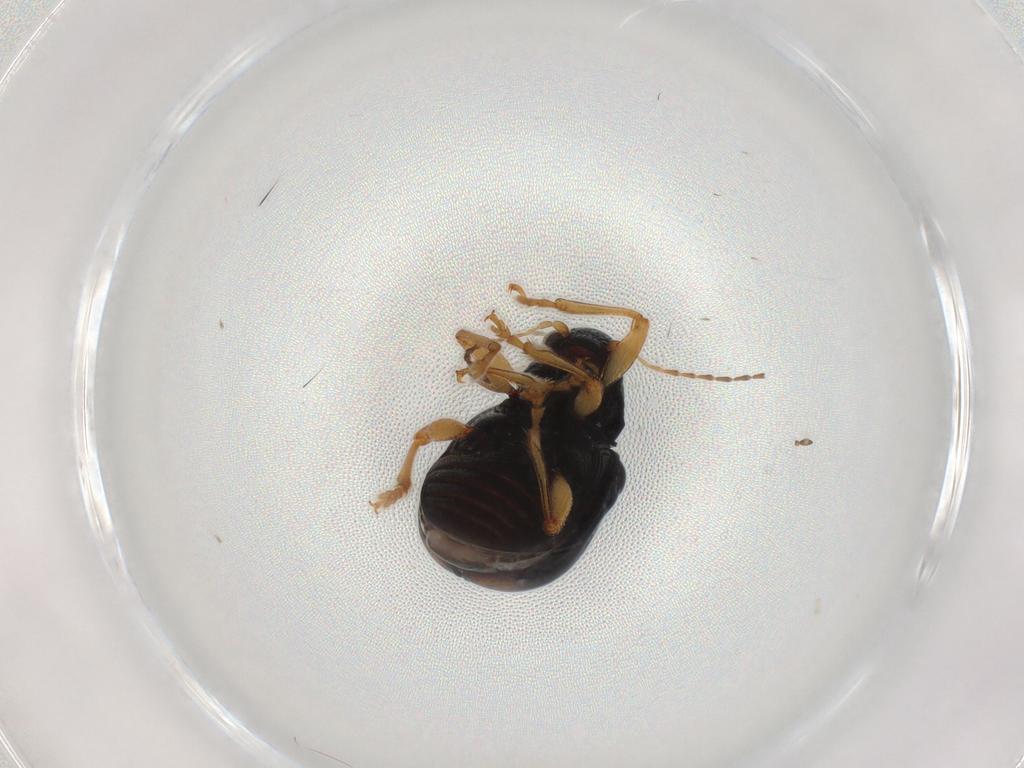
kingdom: Animalia
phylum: Arthropoda
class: Insecta
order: Coleoptera
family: Chrysomelidae
